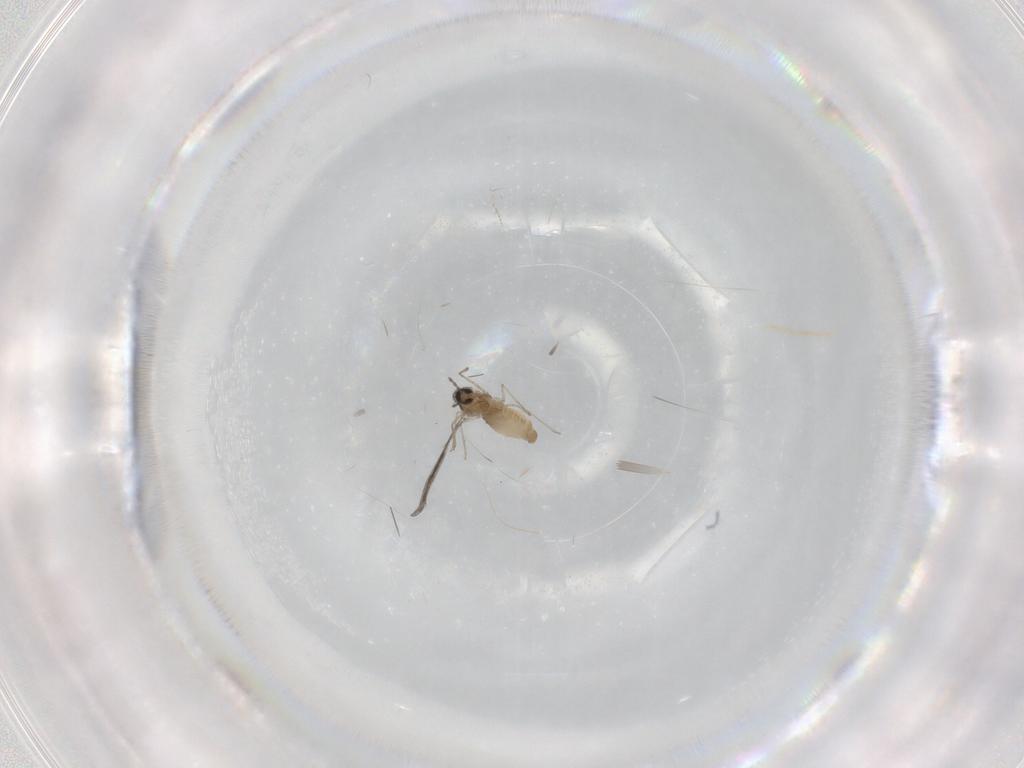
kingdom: Animalia
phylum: Arthropoda
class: Insecta
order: Diptera
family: Cecidomyiidae
